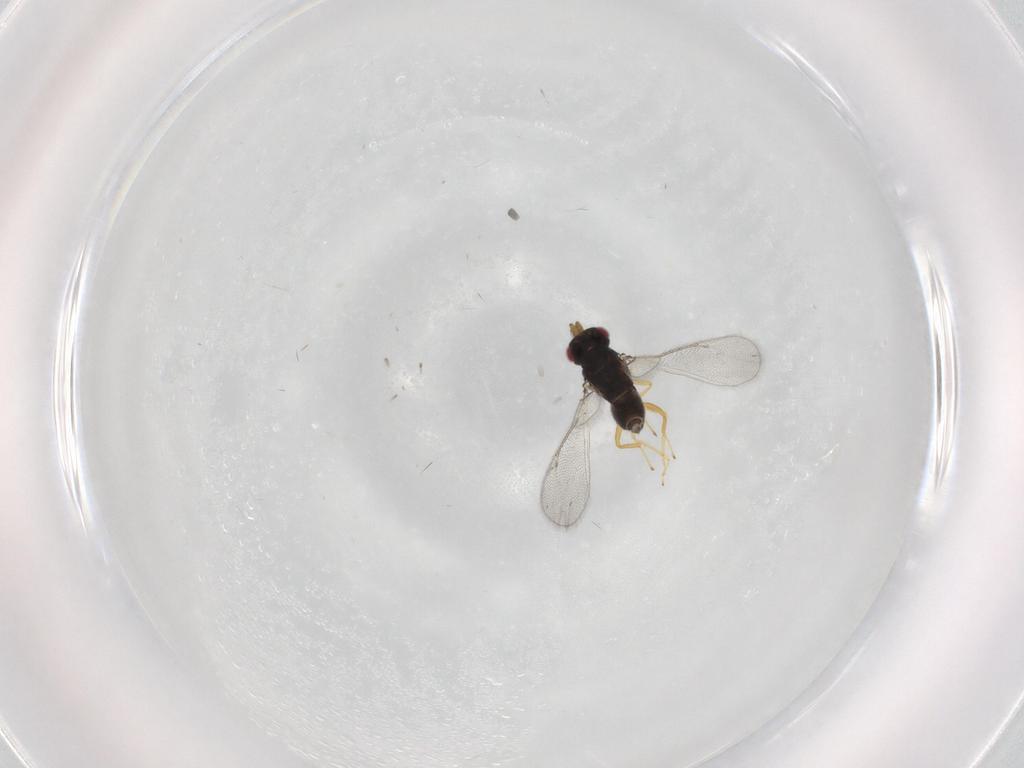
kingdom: Animalia
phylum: Arthropoda
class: Insecta
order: Hymenoptera
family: Eulophidae
